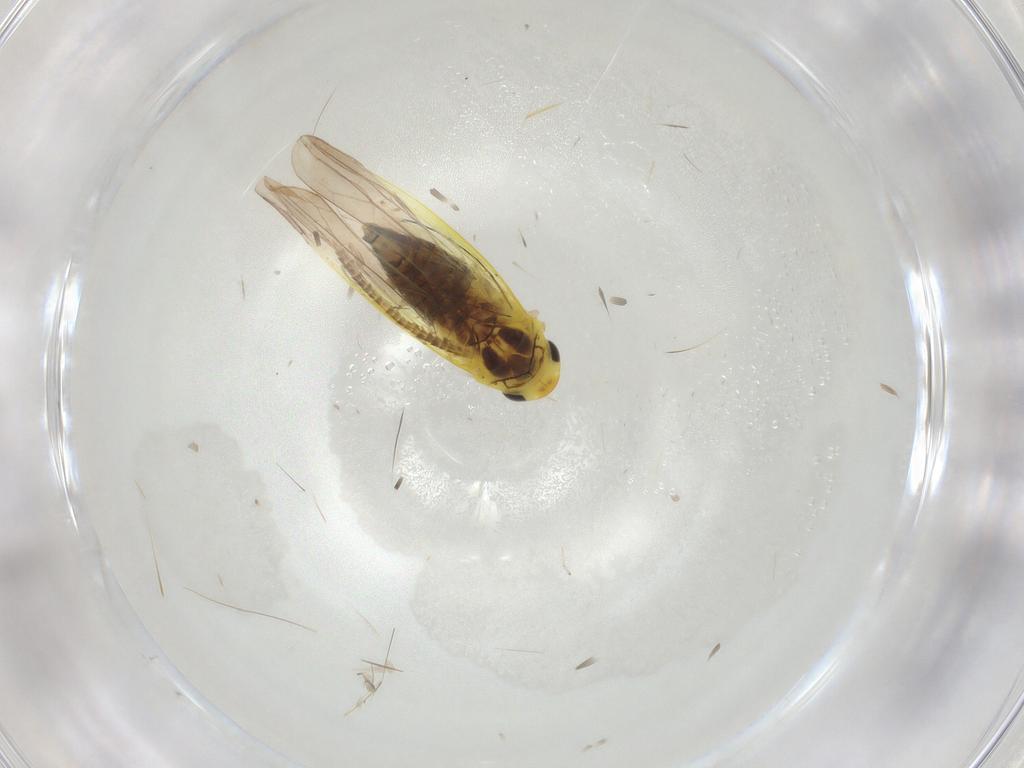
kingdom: Animalia
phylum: Arthropoda
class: Insecta
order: Hemiptera
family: Cicadellidae
